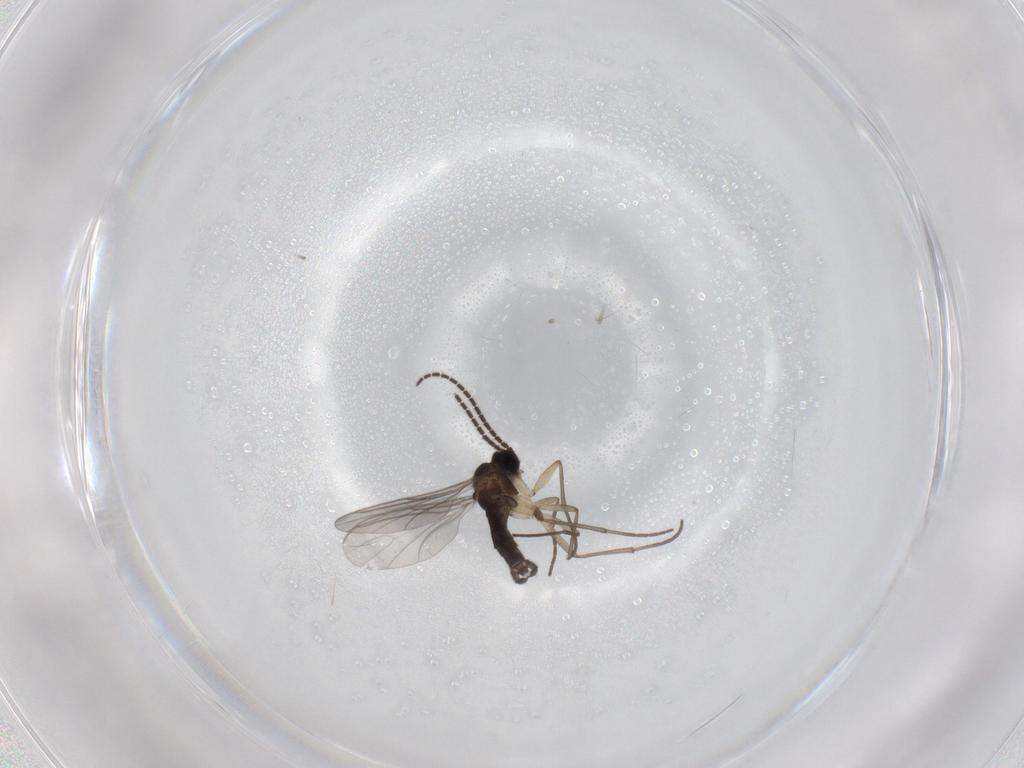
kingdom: Animalia
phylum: Arthropoda
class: Insecta
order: Diptera
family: Sciaridae
